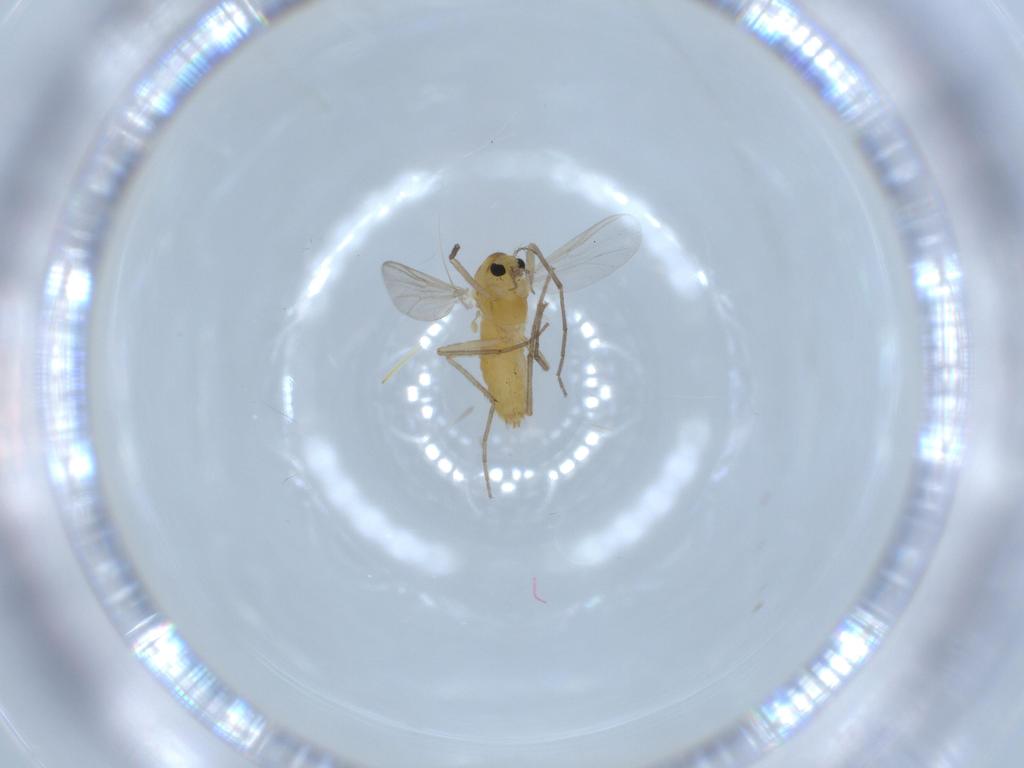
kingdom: Animalia
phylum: Arthropoda
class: Insecta
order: Diptera
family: Chironomidae
